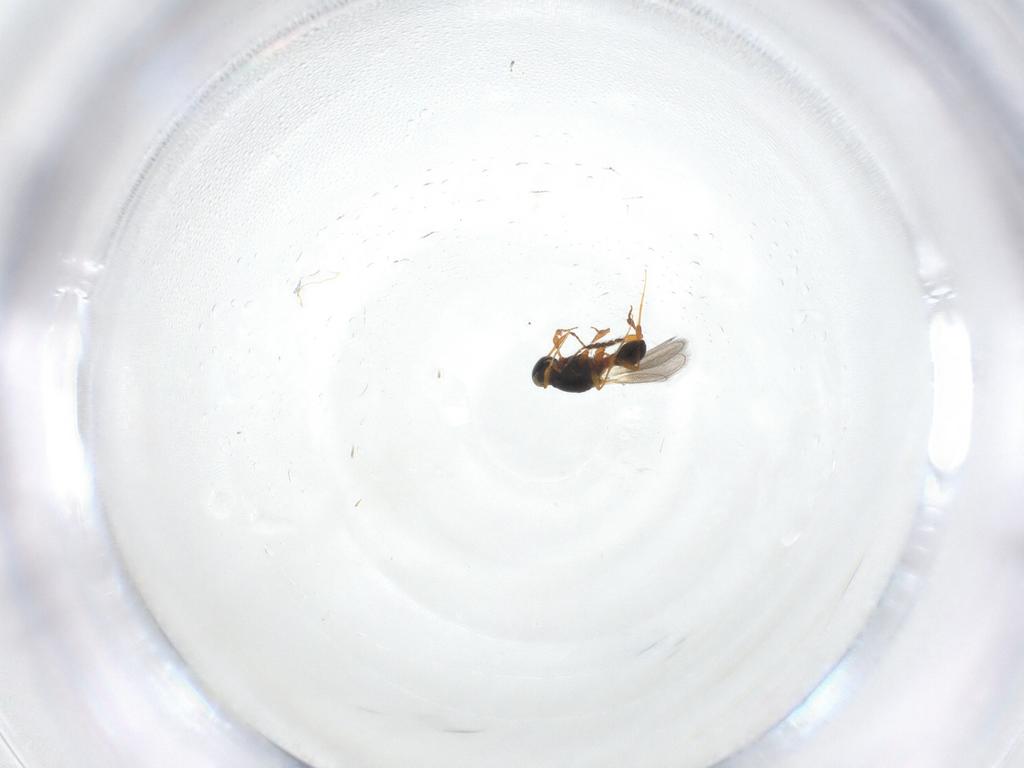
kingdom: Animalia
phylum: Arthropoda
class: Insecta
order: Hymenoptera
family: Platygastridae
